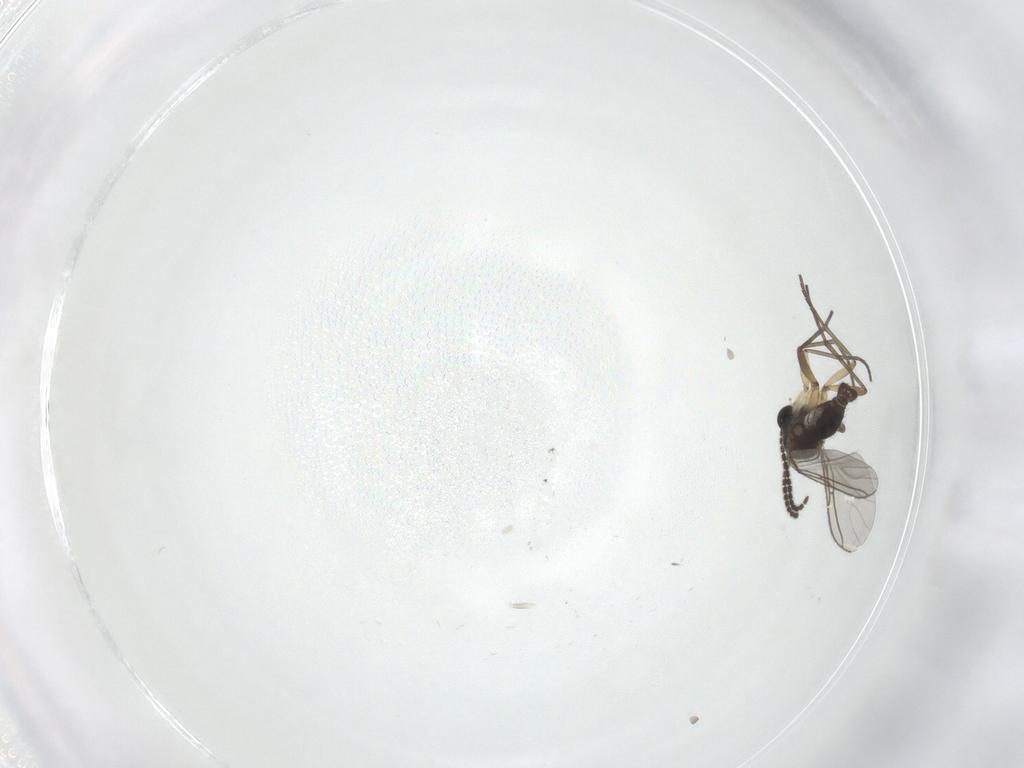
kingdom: Animalia
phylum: Arthropoda
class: Insecta
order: Diptera
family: Sciaridae
